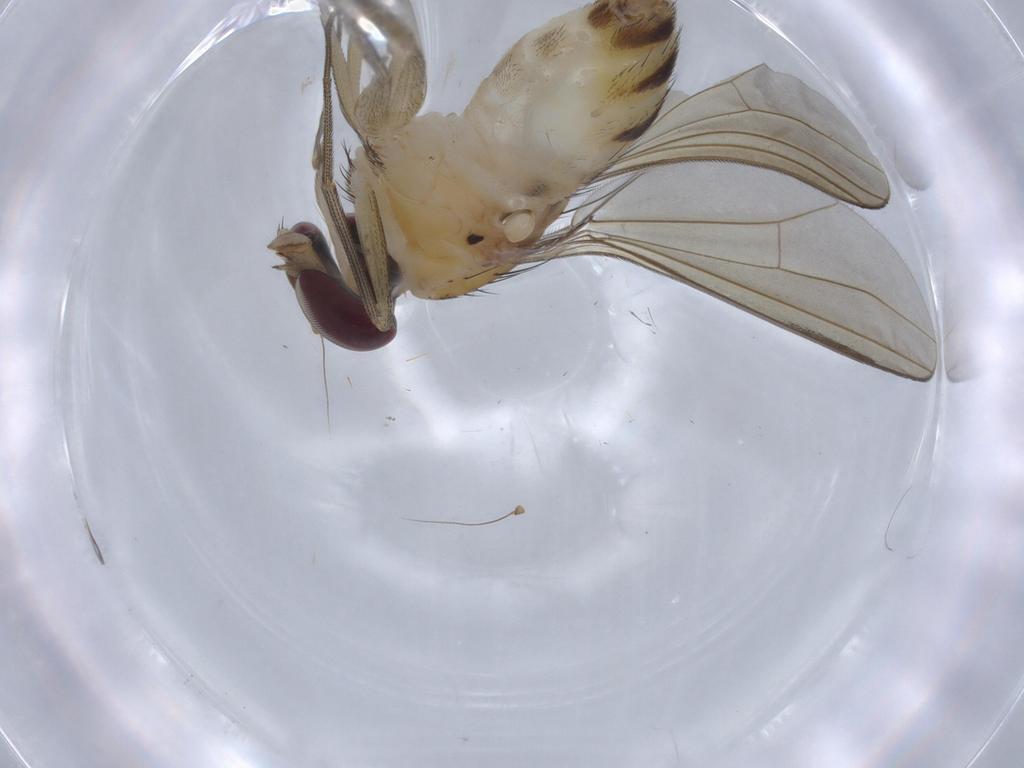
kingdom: Animalia
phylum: Arthropoda
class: Insecta
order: Diptera
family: Dolichopodidae
